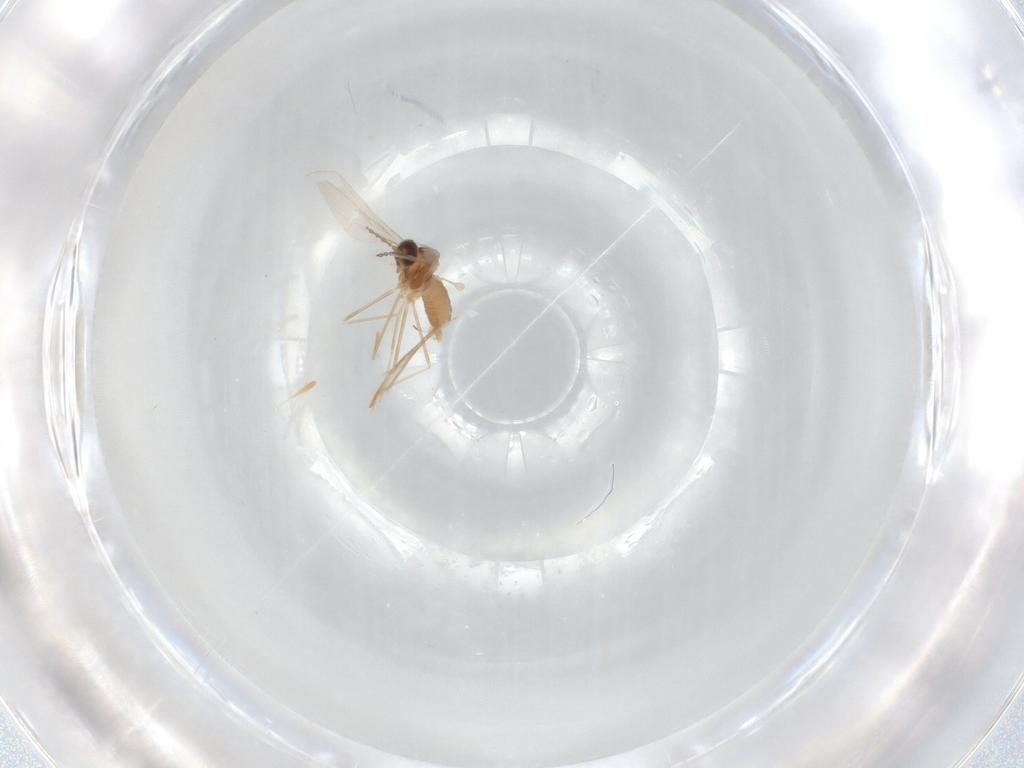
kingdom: Animalia
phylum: Arthropoda
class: Insecta
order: Diptera
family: Cecidomyiidae
